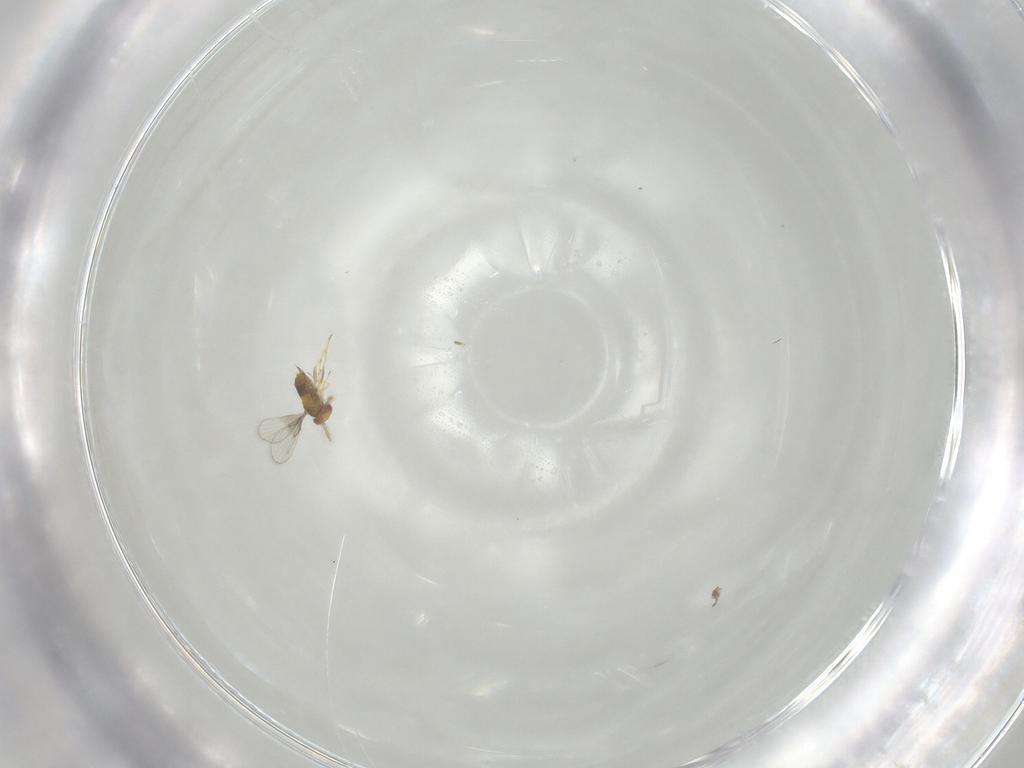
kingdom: Animalia
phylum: Arthropoda
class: Insecta
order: Hymenoptera
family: Trichogrammatidae
